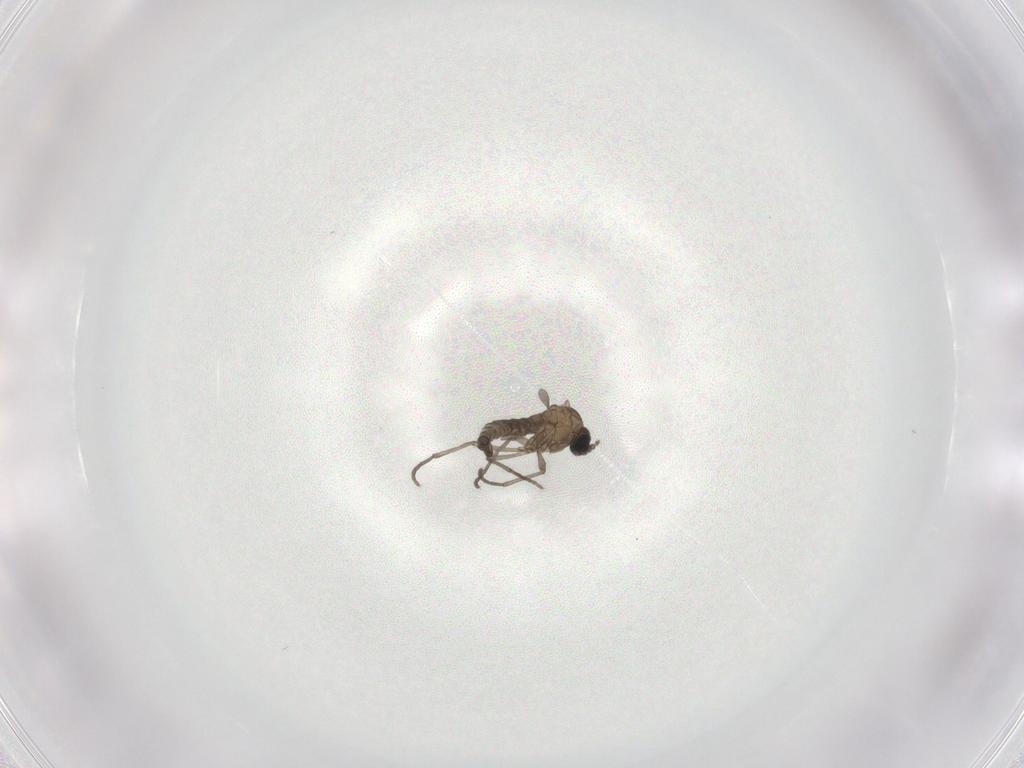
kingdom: Animalia
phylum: Arthropoda
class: Insecta
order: Diptera
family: Sciaridae
